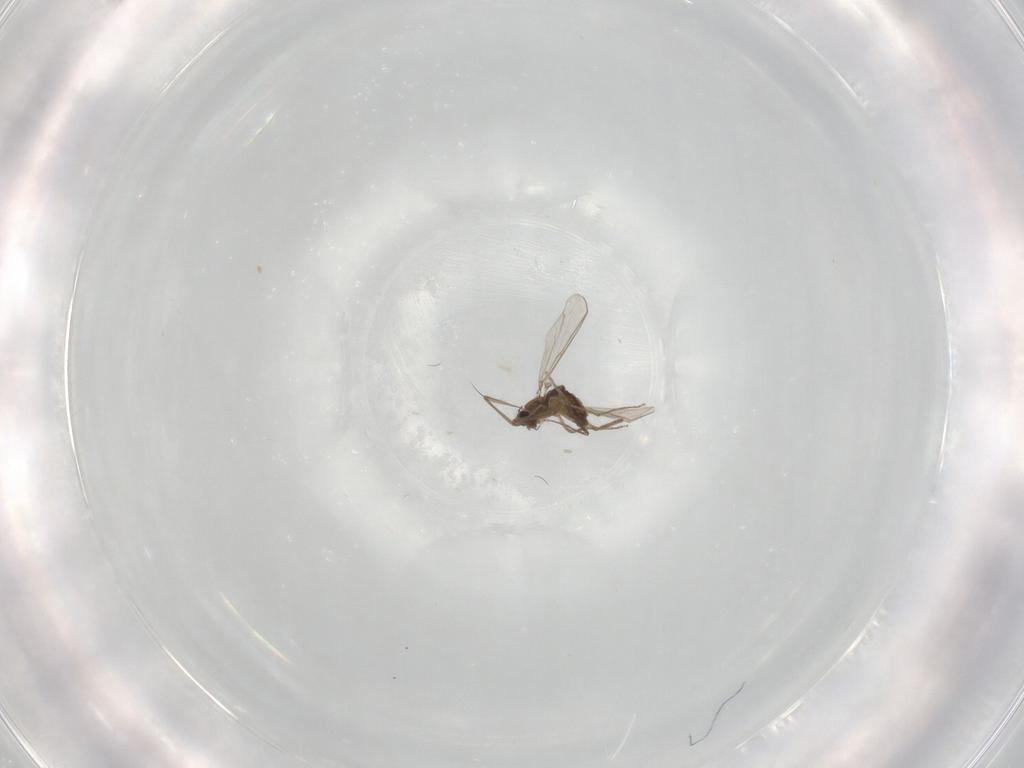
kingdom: Animalia
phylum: Arthropoda
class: Insecta
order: Diptera
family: Chironomidae
